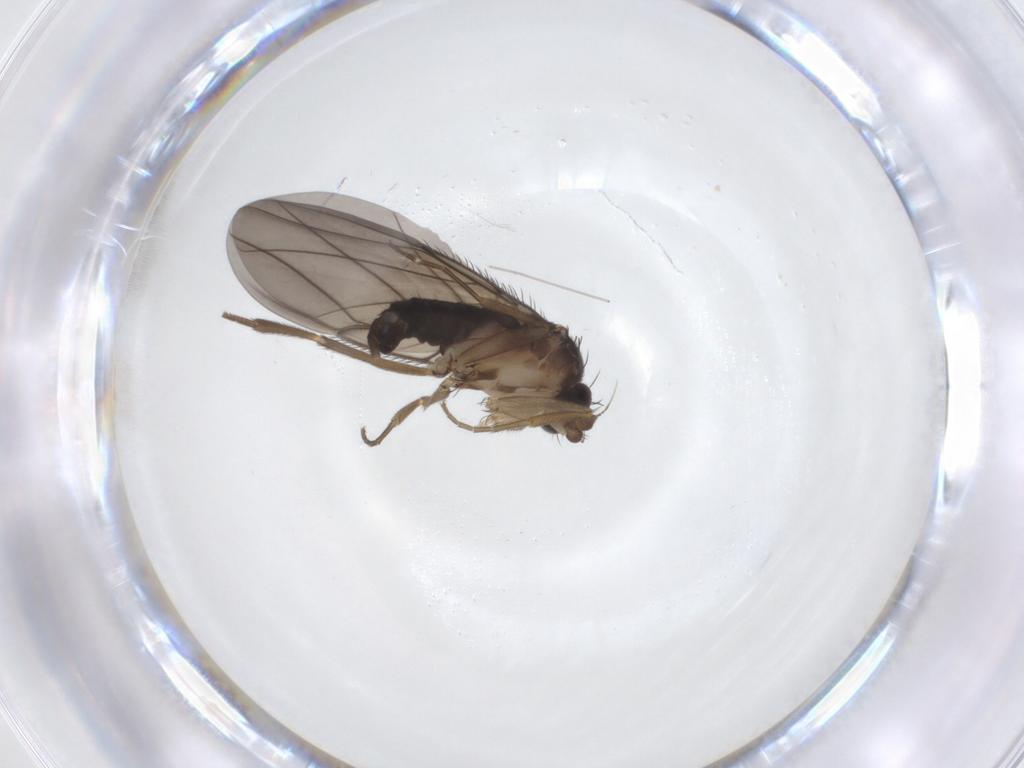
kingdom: Animalia
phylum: Arthropoda
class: Insecta
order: Diptera
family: Phoridae
